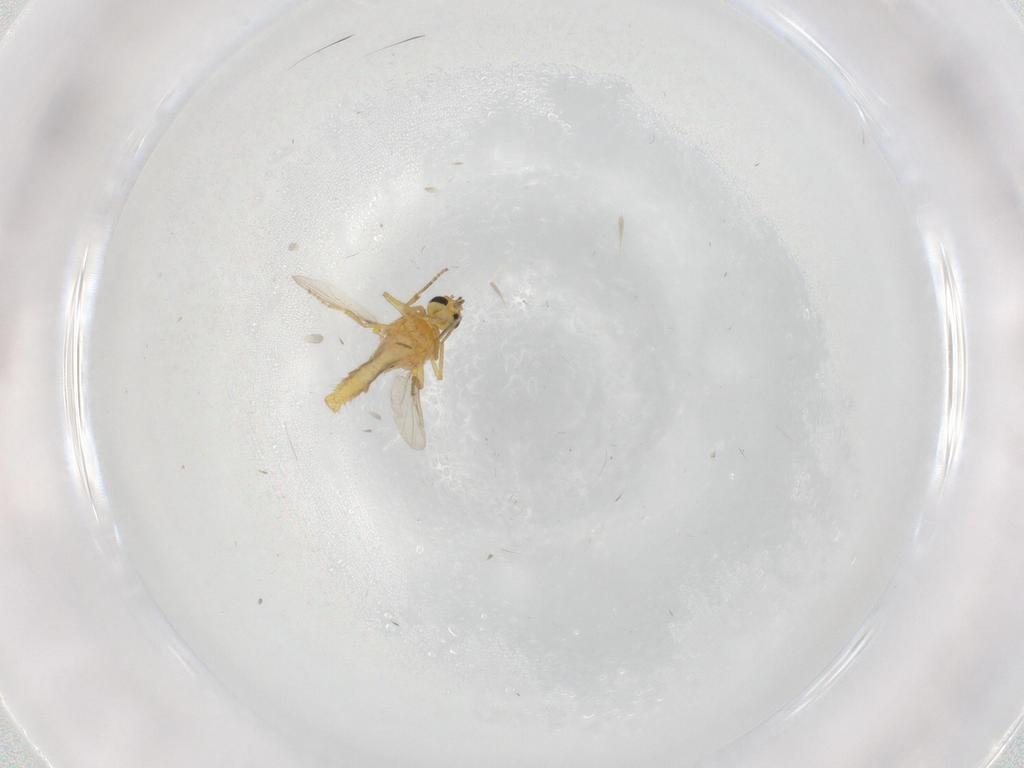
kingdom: Animalia
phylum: Arthropoda
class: Insecta
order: Diptera
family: Ceratopogonidae
